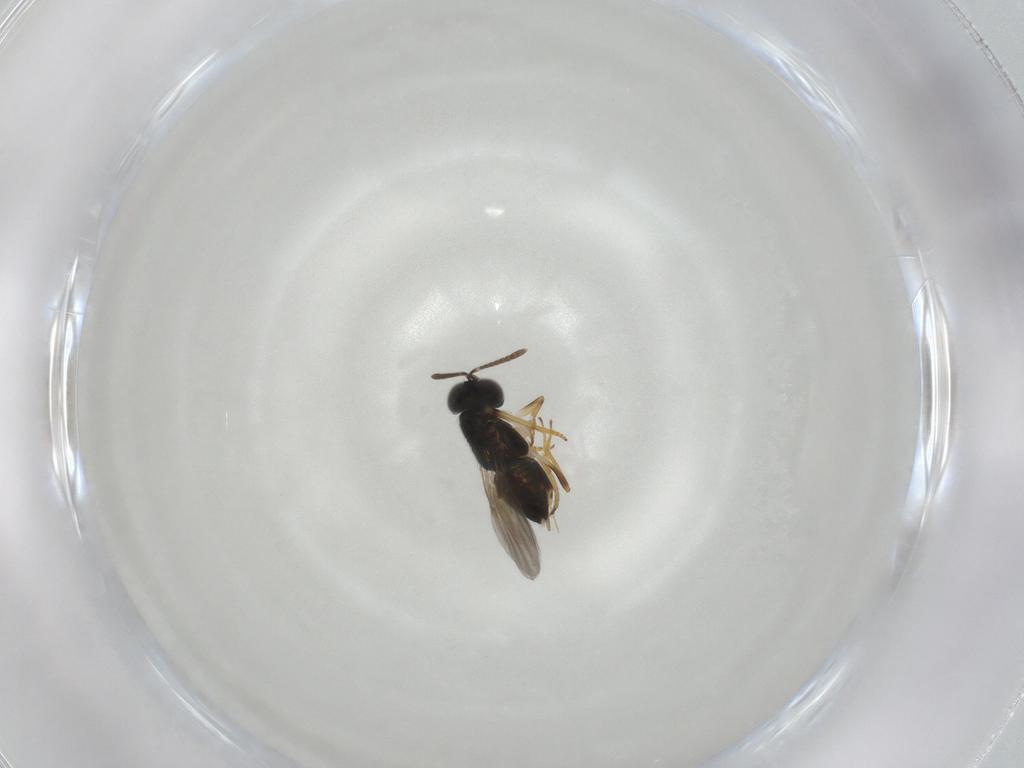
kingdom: Animalia
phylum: Arthropoda
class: Insecta
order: Hymenoptera
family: Encyrtidae
